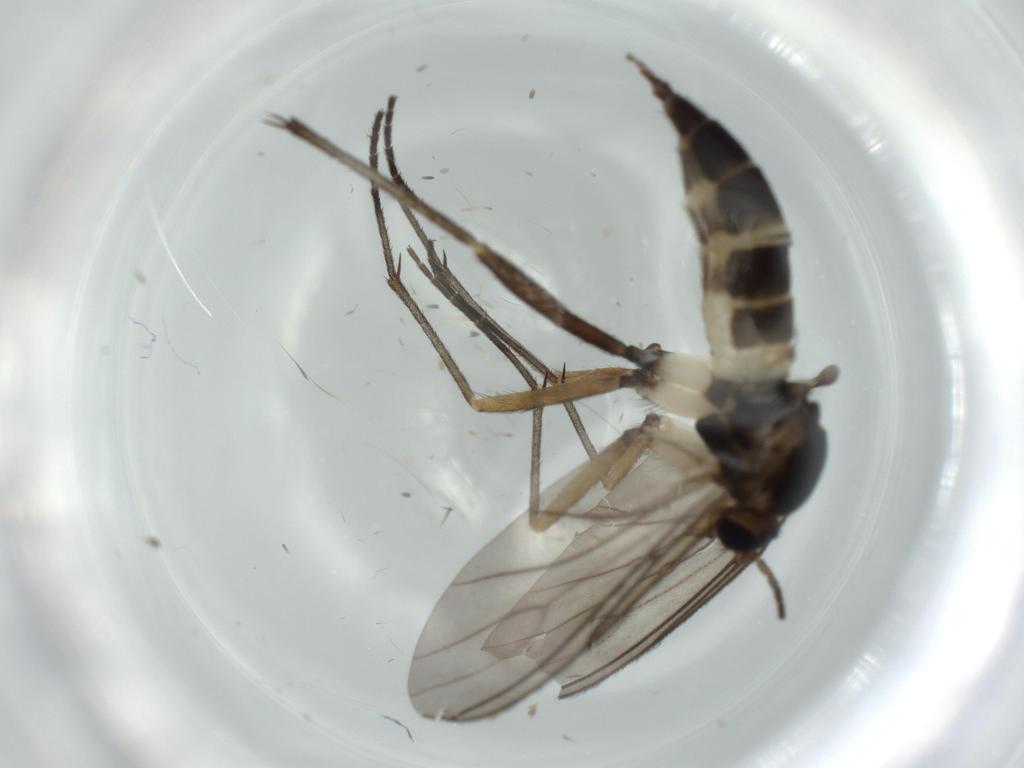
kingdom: Animalia
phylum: Arthropoda
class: Insecta
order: Diptera
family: Sciaridae
